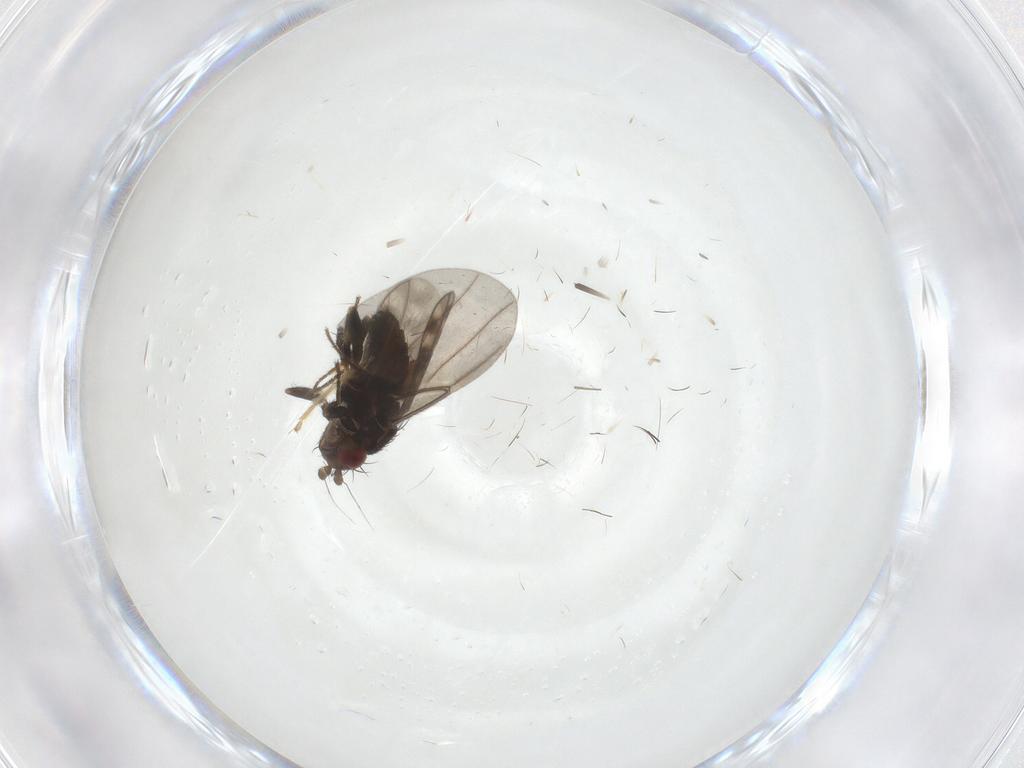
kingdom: Animalia
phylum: Arthropoda
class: Insecta
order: Diptera
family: Sphaeroceridae
